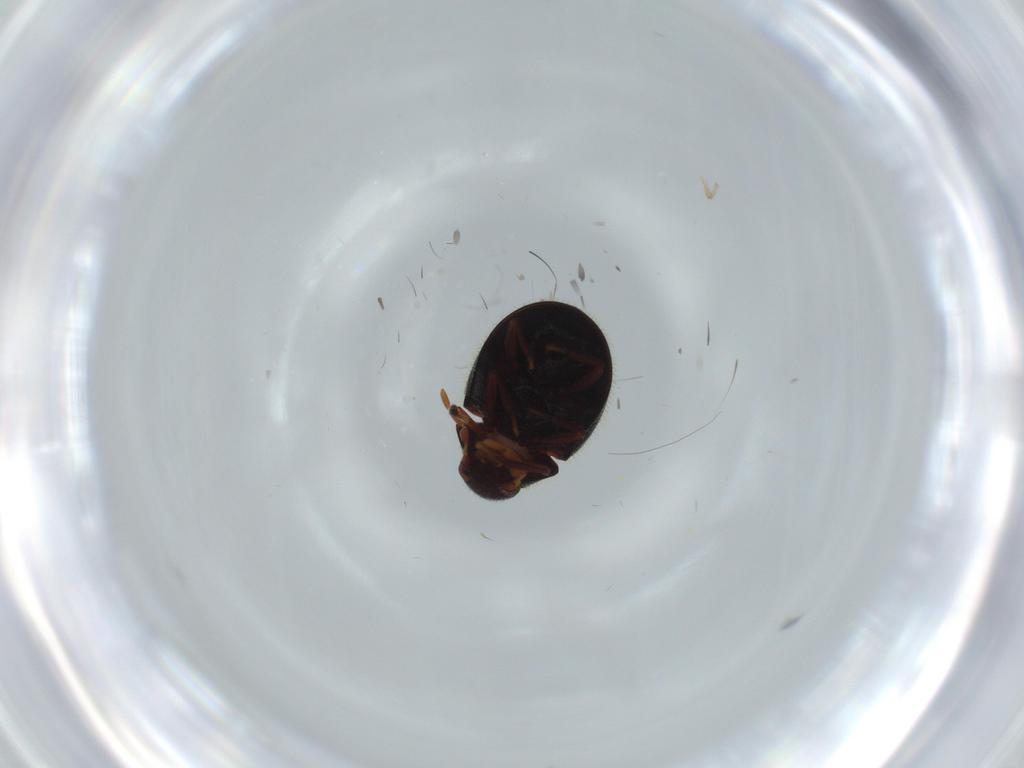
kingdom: Animalia
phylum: Arthropoda
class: Insecta
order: Coleoptera
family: Ptinidae
